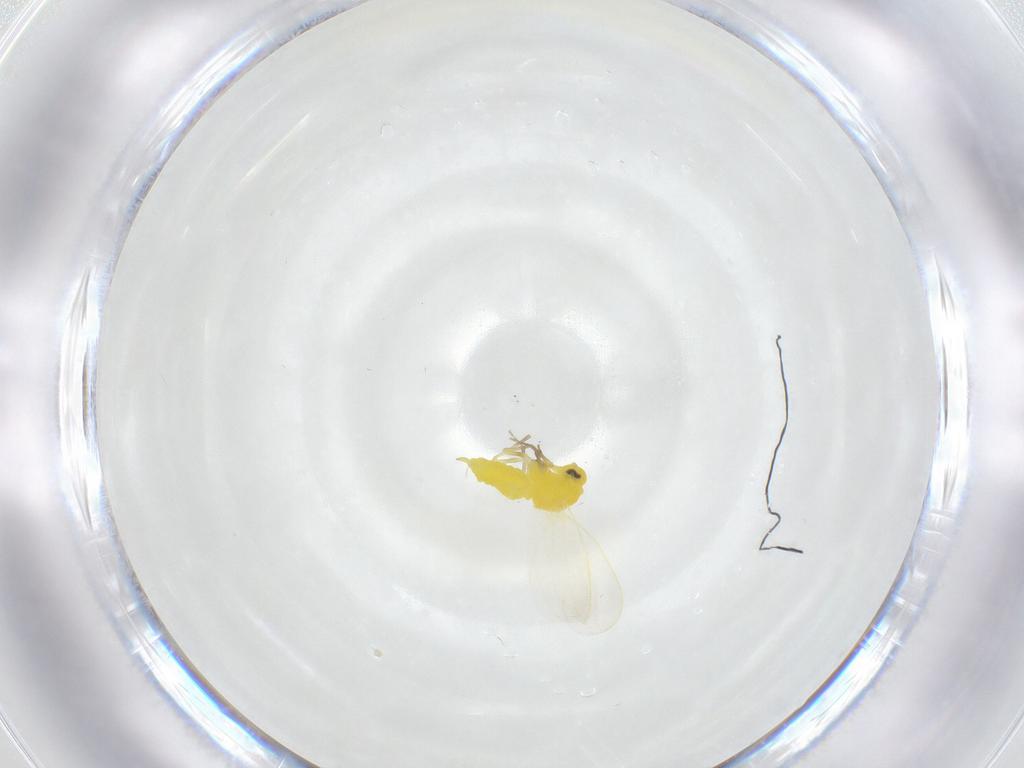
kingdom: Animalia
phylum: Arthropoda
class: Insecta
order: Hemiptera
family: Aleyrodidae
